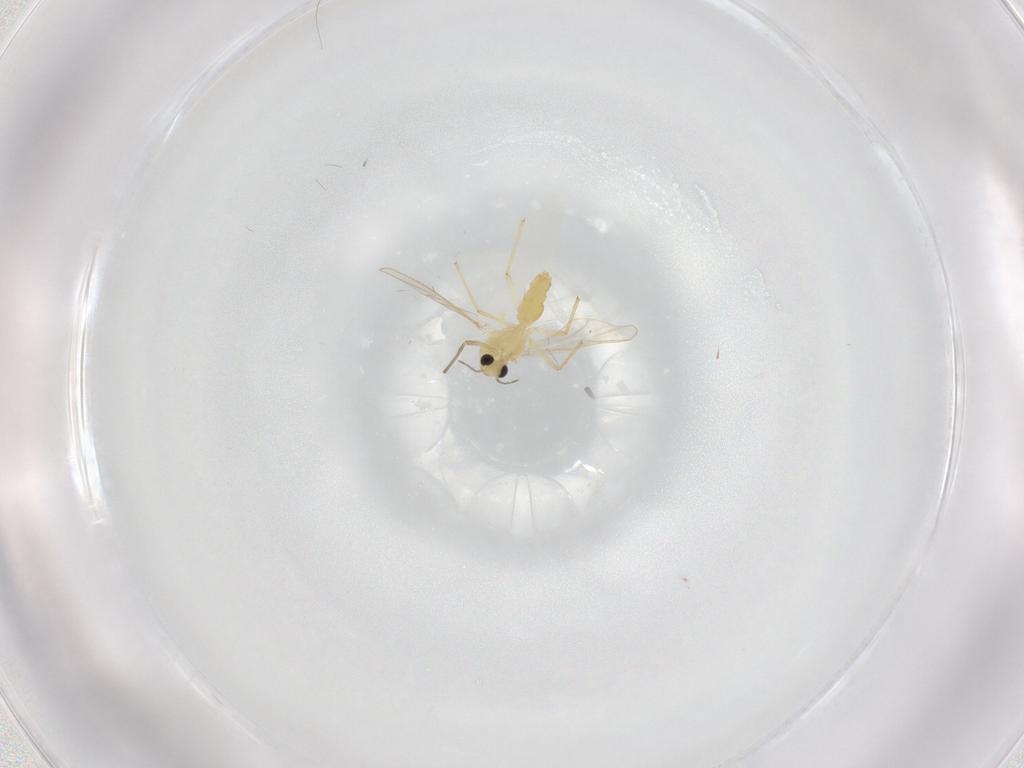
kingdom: Animalia
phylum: Arthropoda
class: Insecta
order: Diptera
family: Chironomidae
